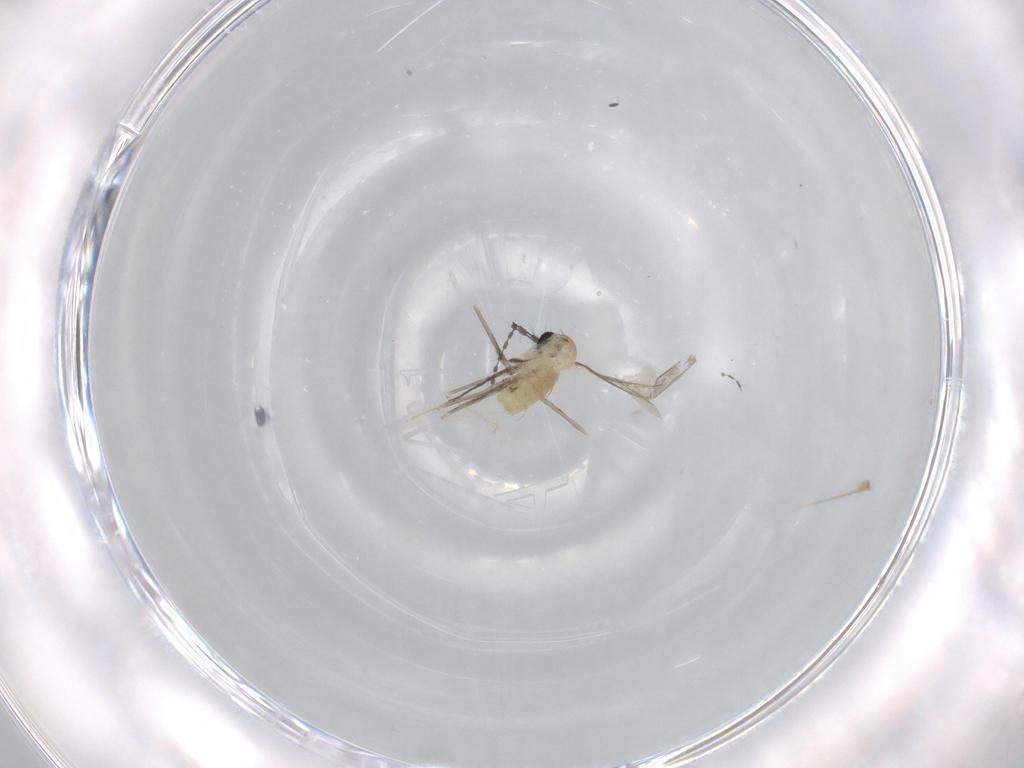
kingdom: Animalia
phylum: Arthropoda
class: Insecta
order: Diptera
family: Cecidomyiidae
